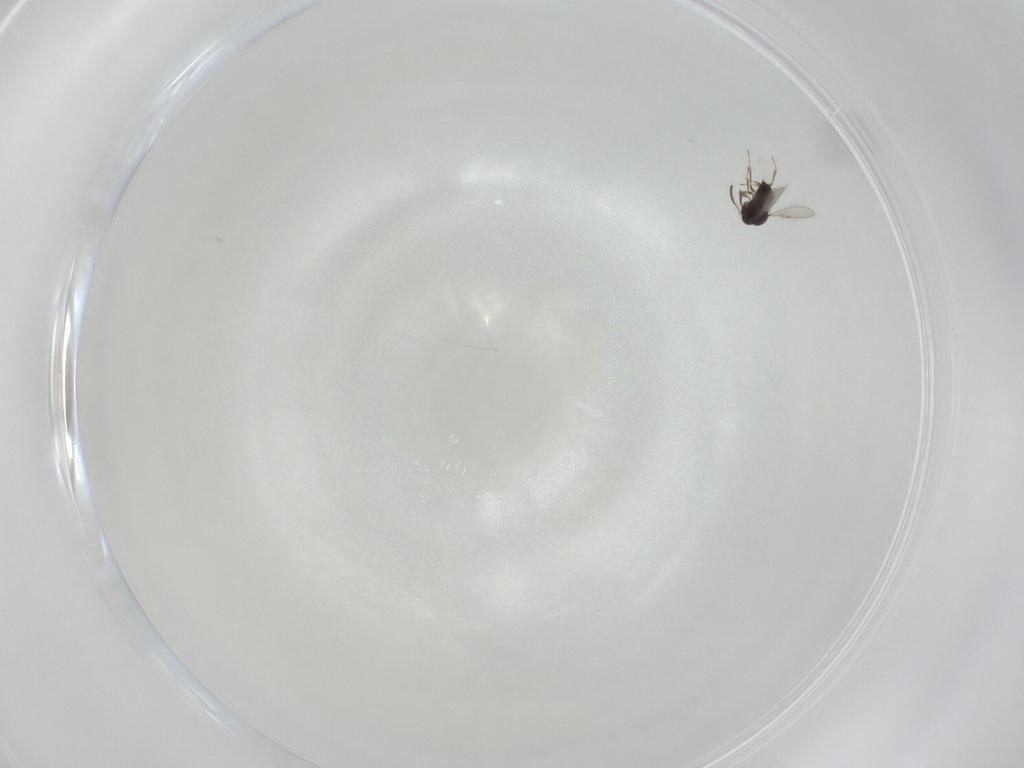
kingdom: Animalia
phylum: Arthropoda
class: Insecta
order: Hymenoptera
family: Scelionidae
